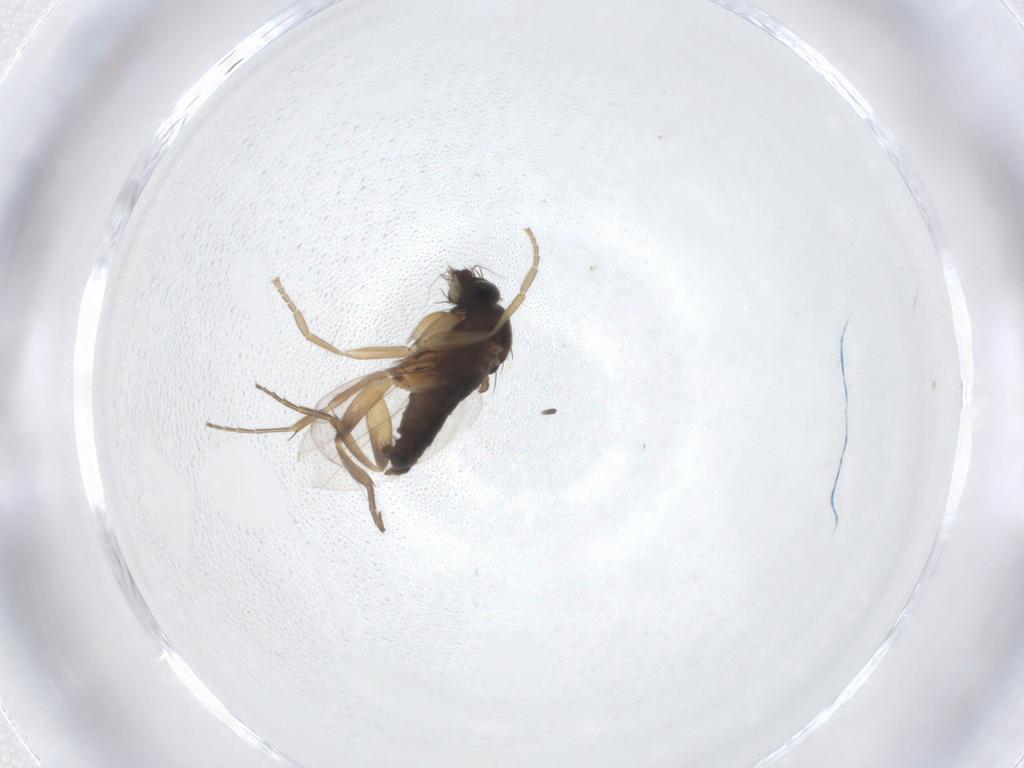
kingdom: Animalia
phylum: Arthropoda
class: Insecta
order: Diptera
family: Phoridae
